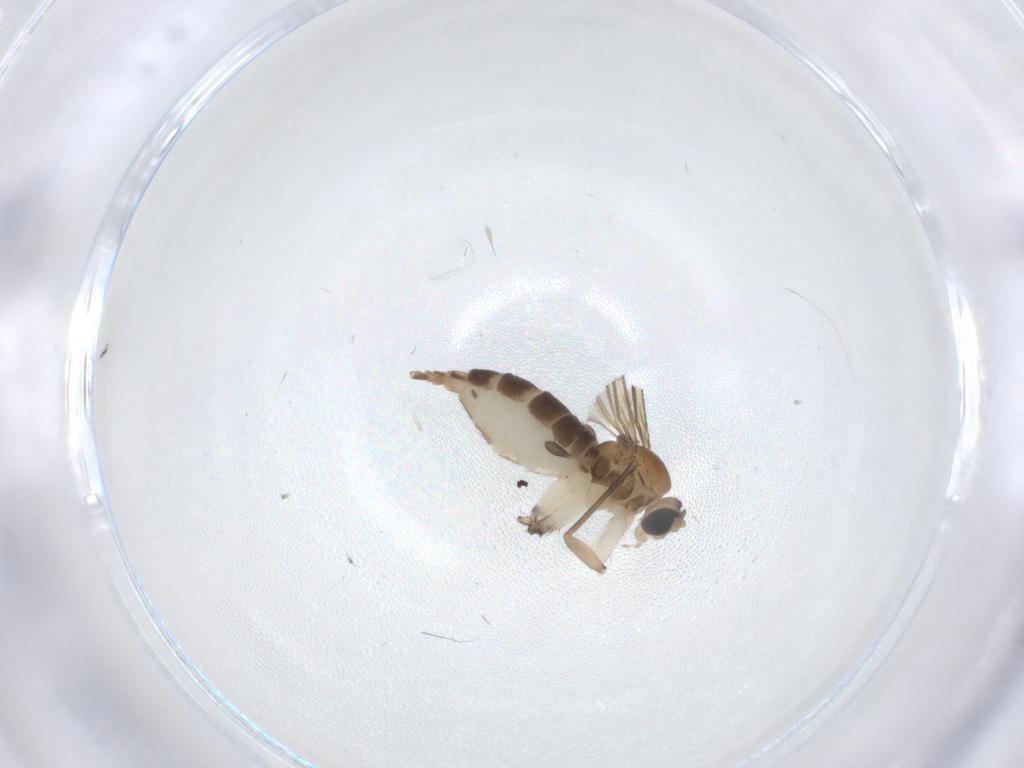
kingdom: Animalia
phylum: Arthropoda
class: Insecta
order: Diptera
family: Sciaridae
